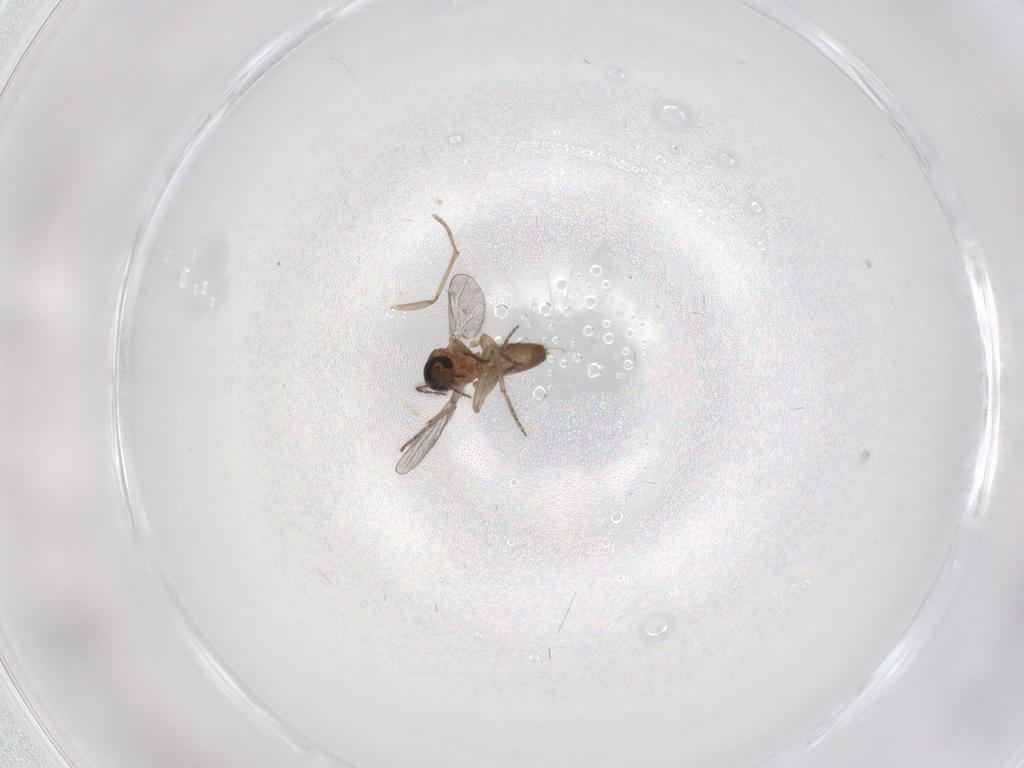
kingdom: Animalia
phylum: Arthropoda
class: Insecta
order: Diptera
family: Ceratopogonidae
